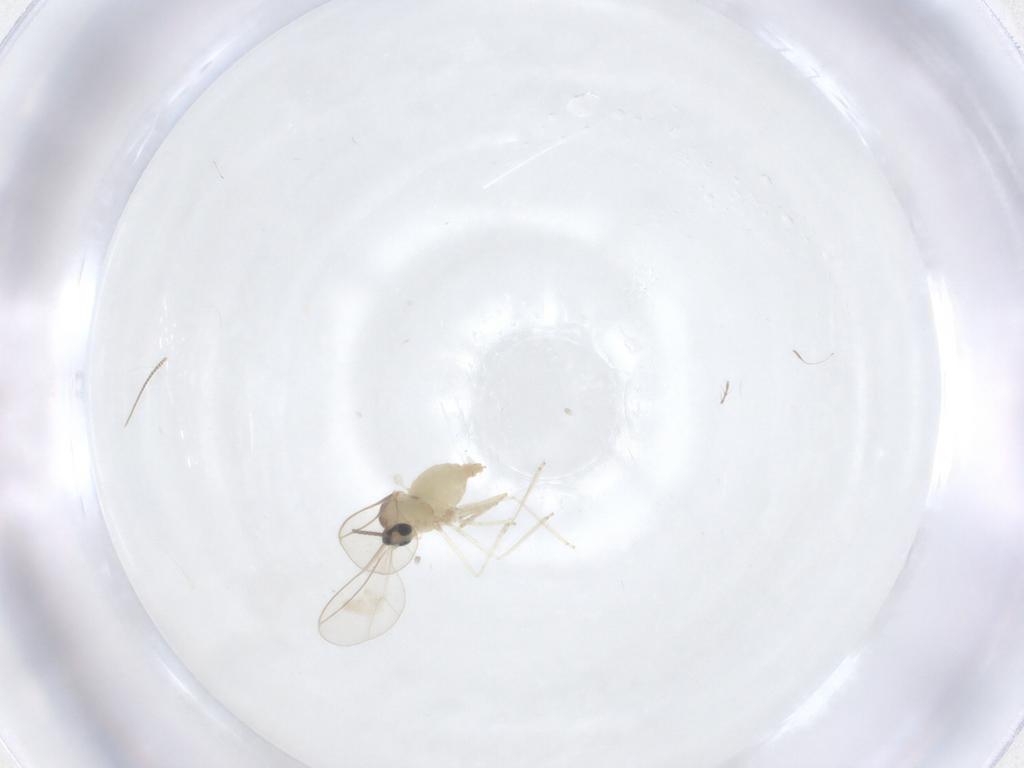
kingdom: Animalia
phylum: Arthropoda
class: Insecta
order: Diptera
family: Chironomidae
